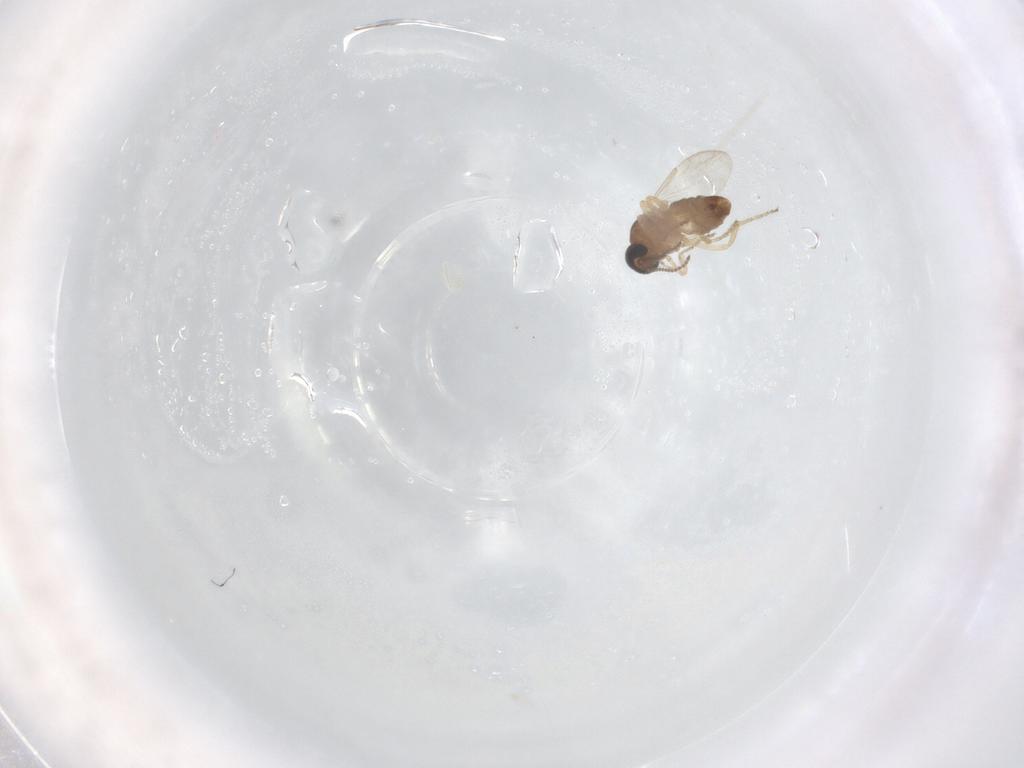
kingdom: Animalia
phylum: Arthropoda
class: Insecta
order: Diptera
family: Ceratopogonidae
